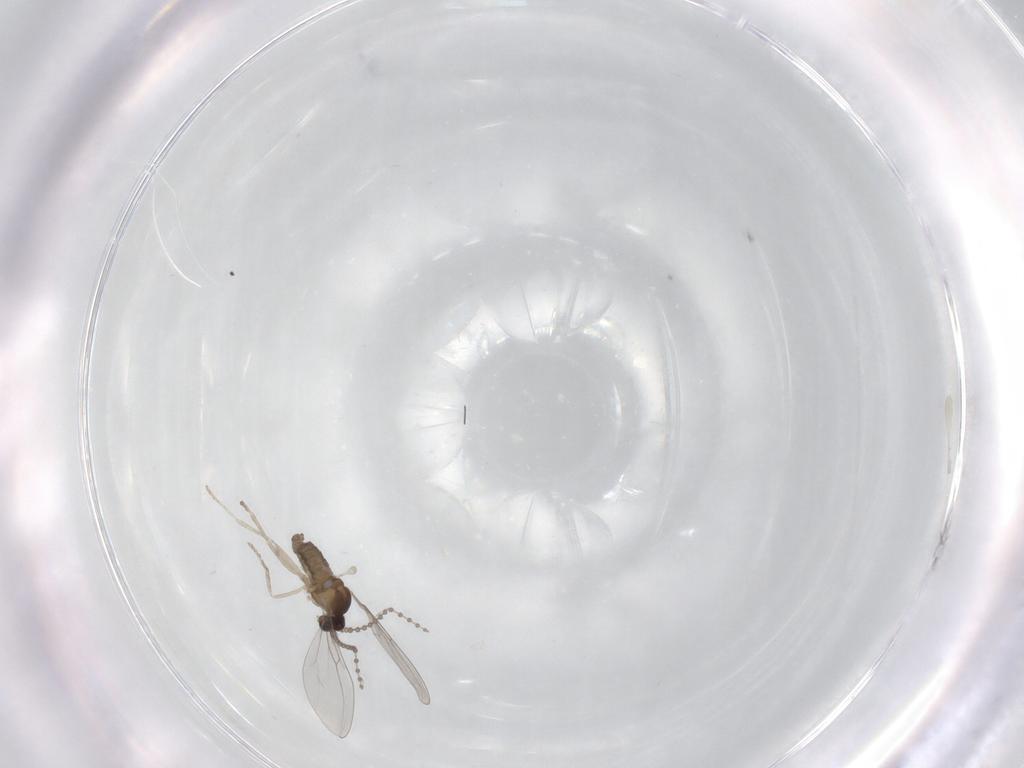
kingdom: Animalia
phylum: Arthropoda
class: Insecta
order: Diptera
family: Cecidomyiidae
